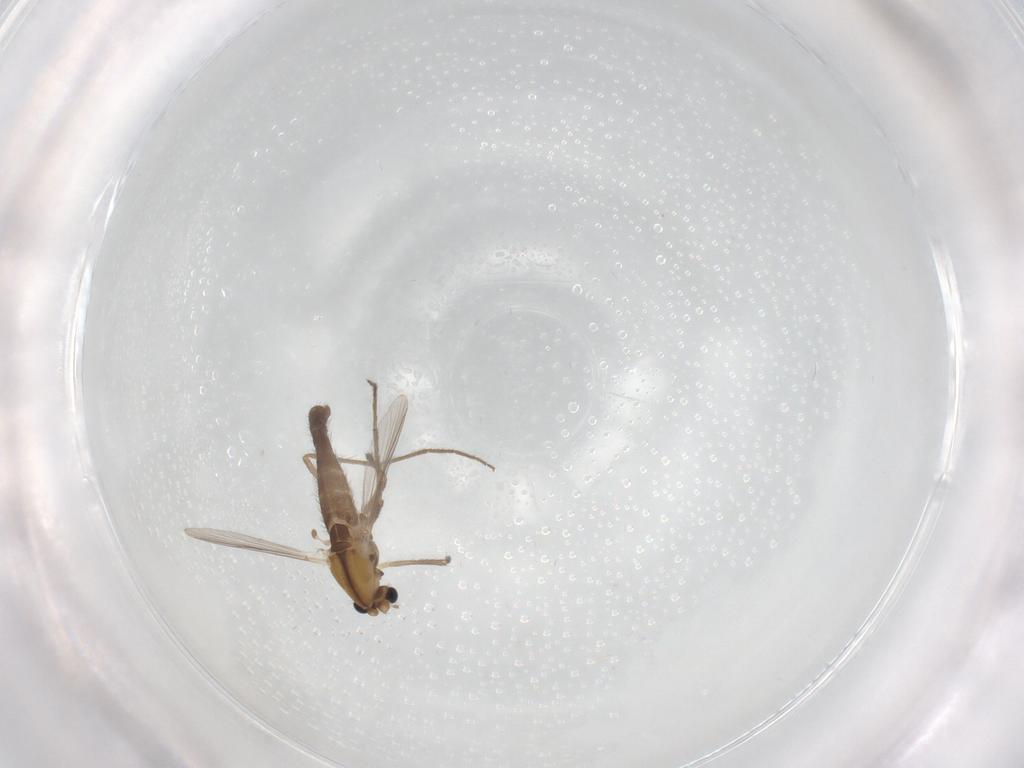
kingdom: Animalia
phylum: Arthropoda
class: Insecta
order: Diptera
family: Chironomidae
